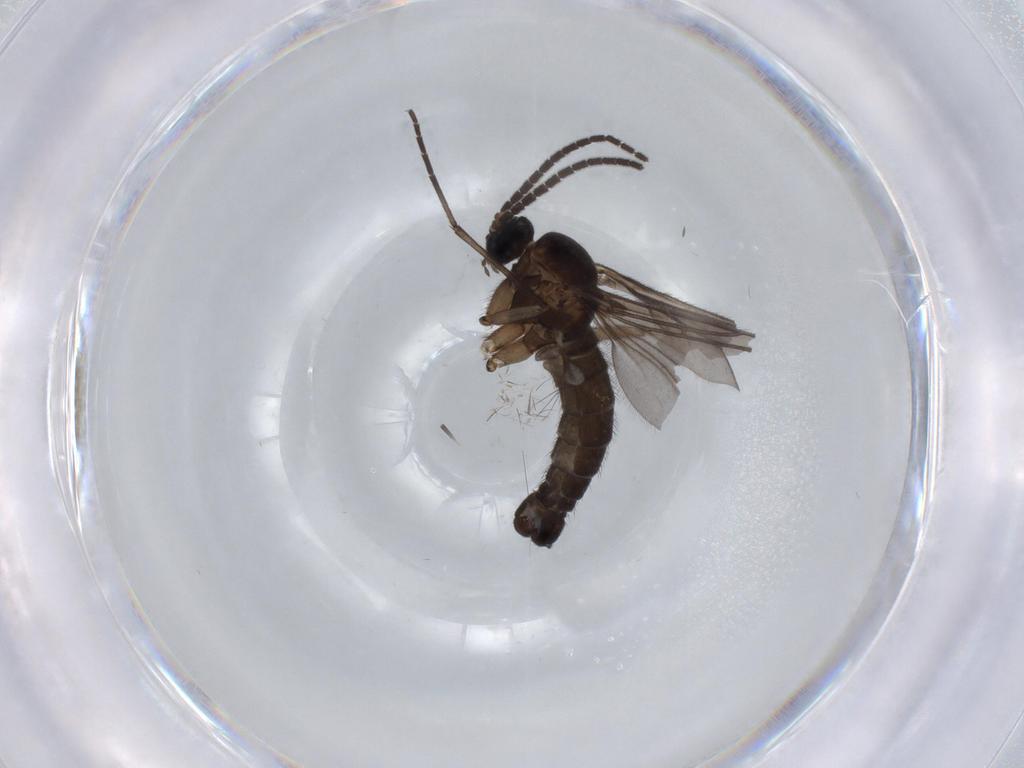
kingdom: Animalia
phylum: Arthropoda
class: Insecta
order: Diptera
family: Sciaridae
